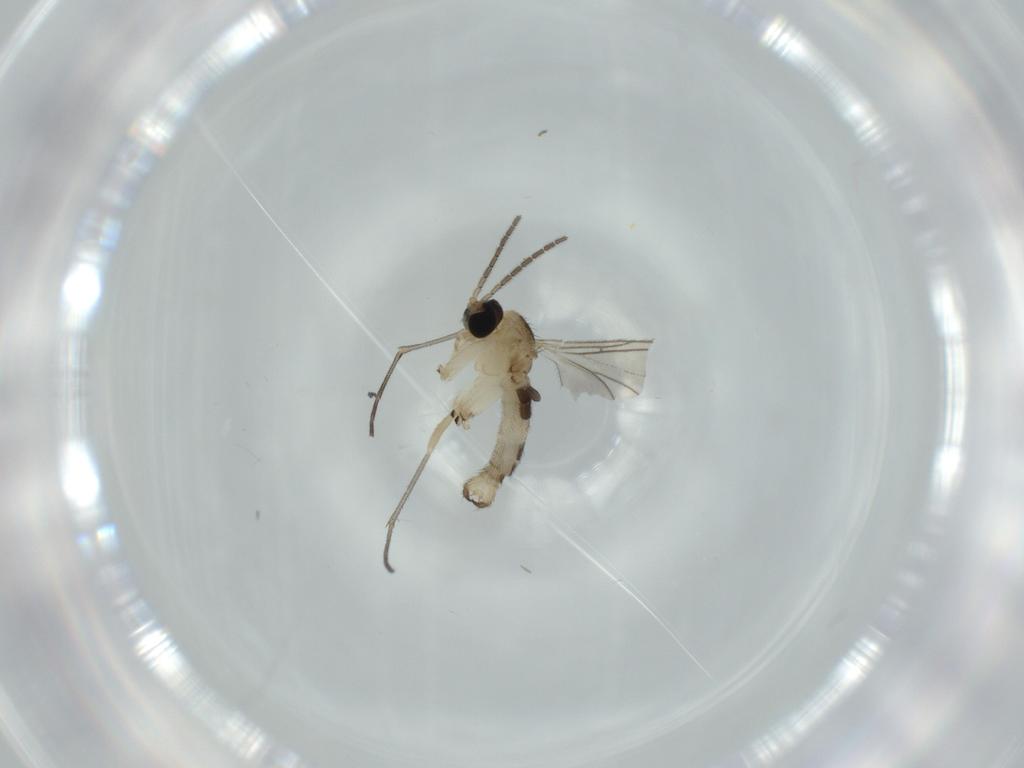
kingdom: Animalia
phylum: Arthropoda
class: Insecta
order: Diptera
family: Sciaridae
